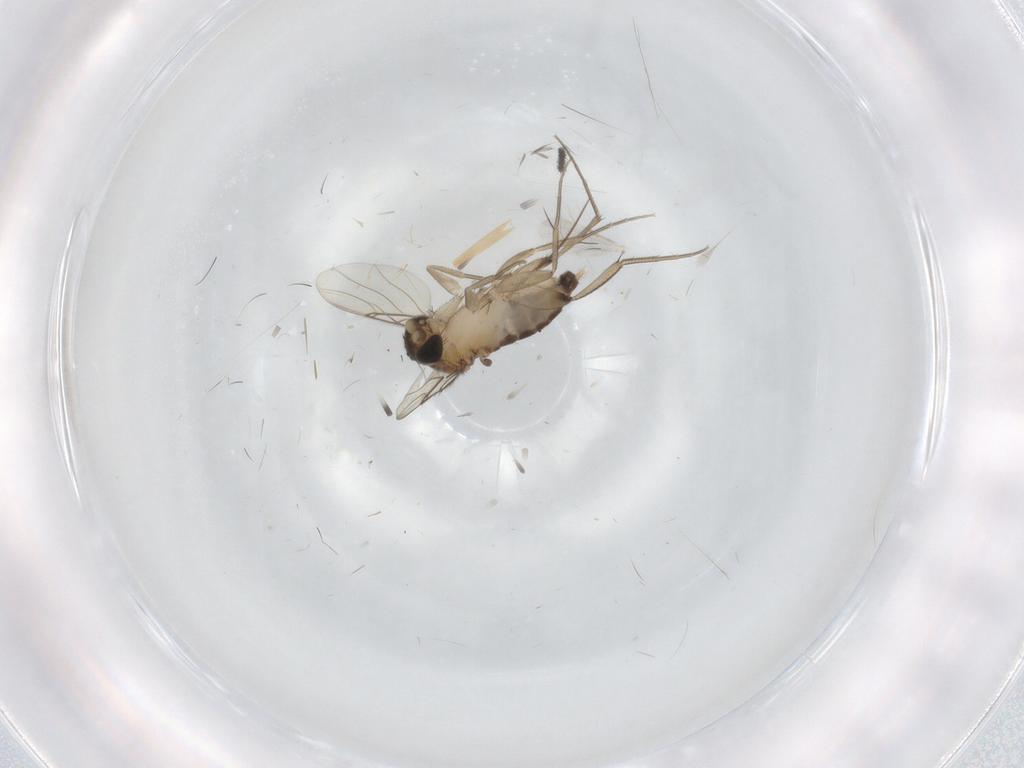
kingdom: Animalia
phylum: Arthropoda
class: Insecta
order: Diptera
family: Phoridae
